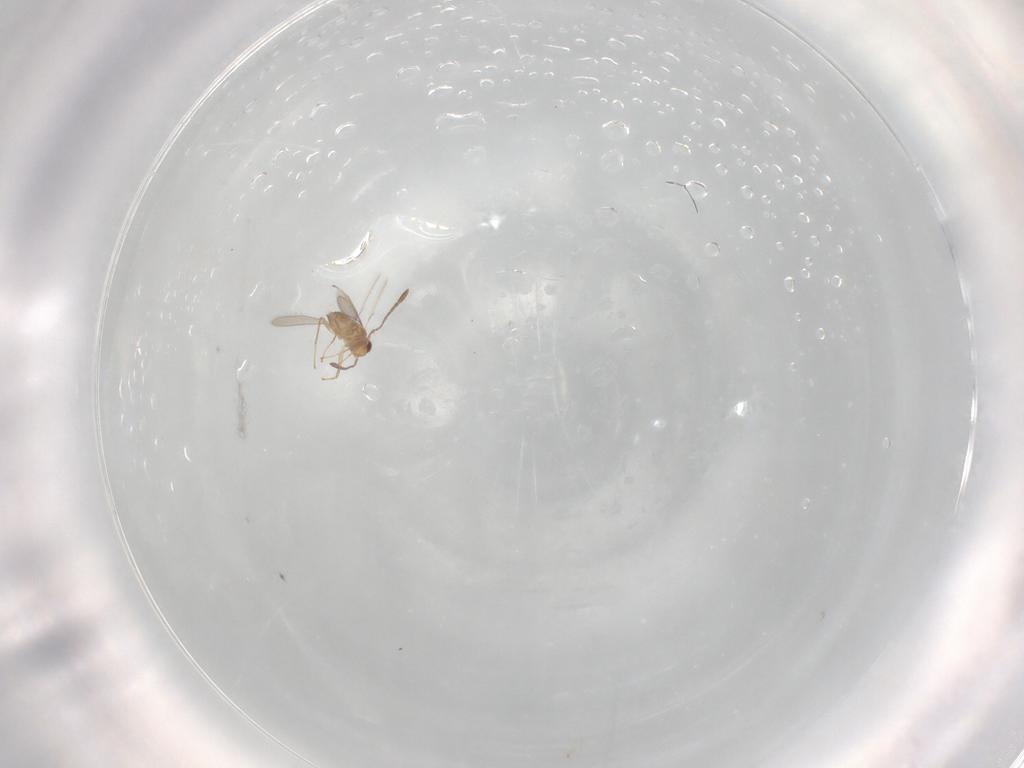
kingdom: Animalia
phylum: Arthropoda
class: Insecta
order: Hymenoptera
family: Mymaridae
